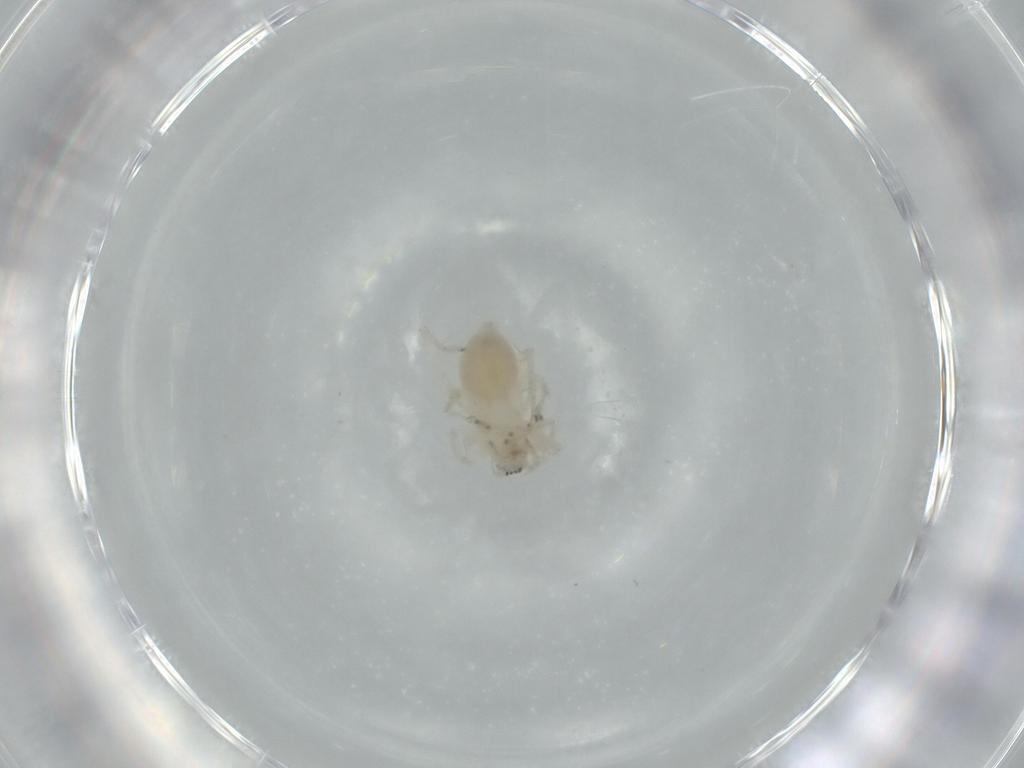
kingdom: Animalia
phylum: Arthropoda
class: Arachnida
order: Araneae
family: Anyphaenidae
